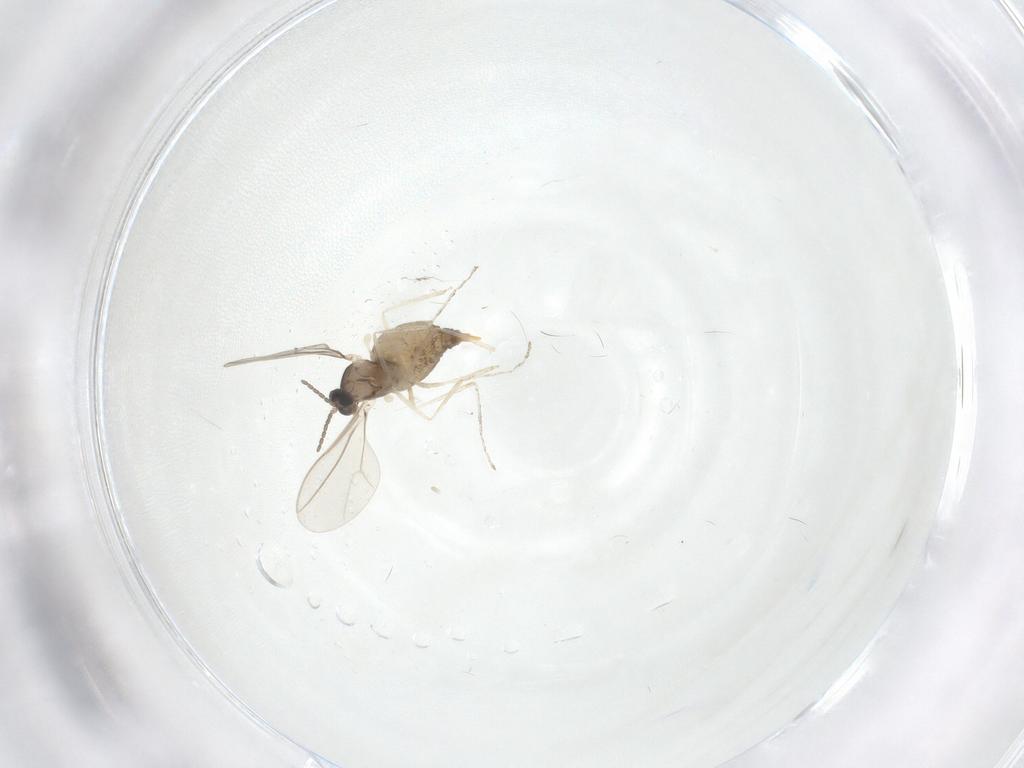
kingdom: Animalia
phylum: Arthropoda
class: Insecta
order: Diptera
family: Cecidomyiidae
